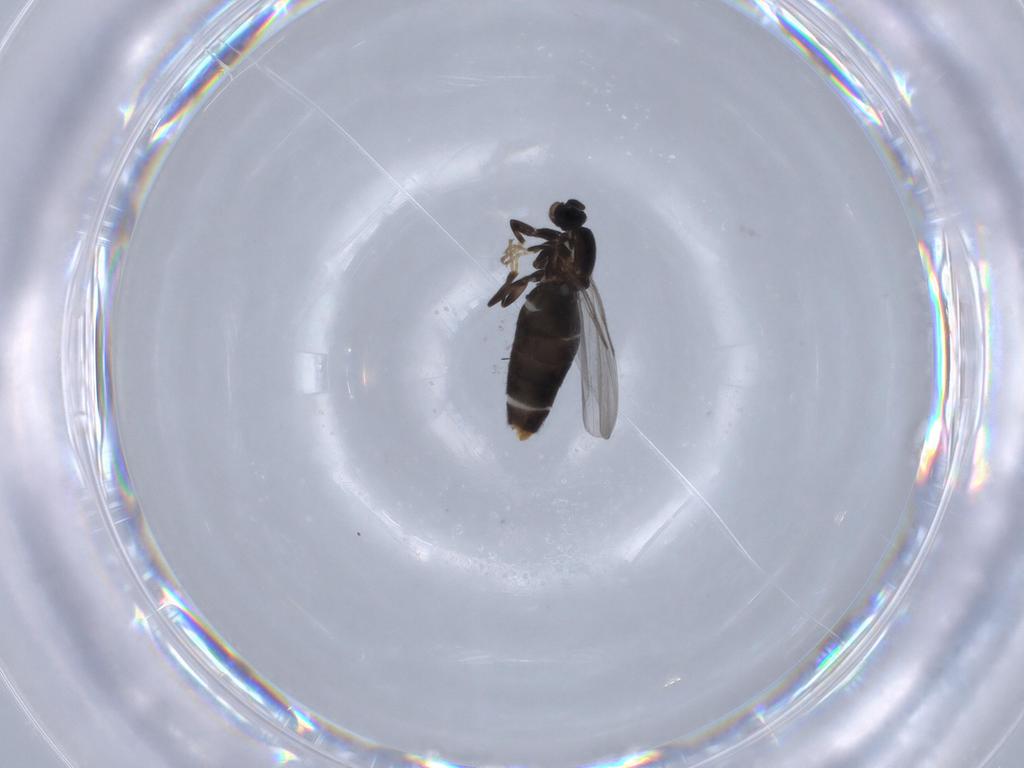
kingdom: Animalia
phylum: Arthropoda
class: Insecta
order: Diptera
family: Scatopsidae
